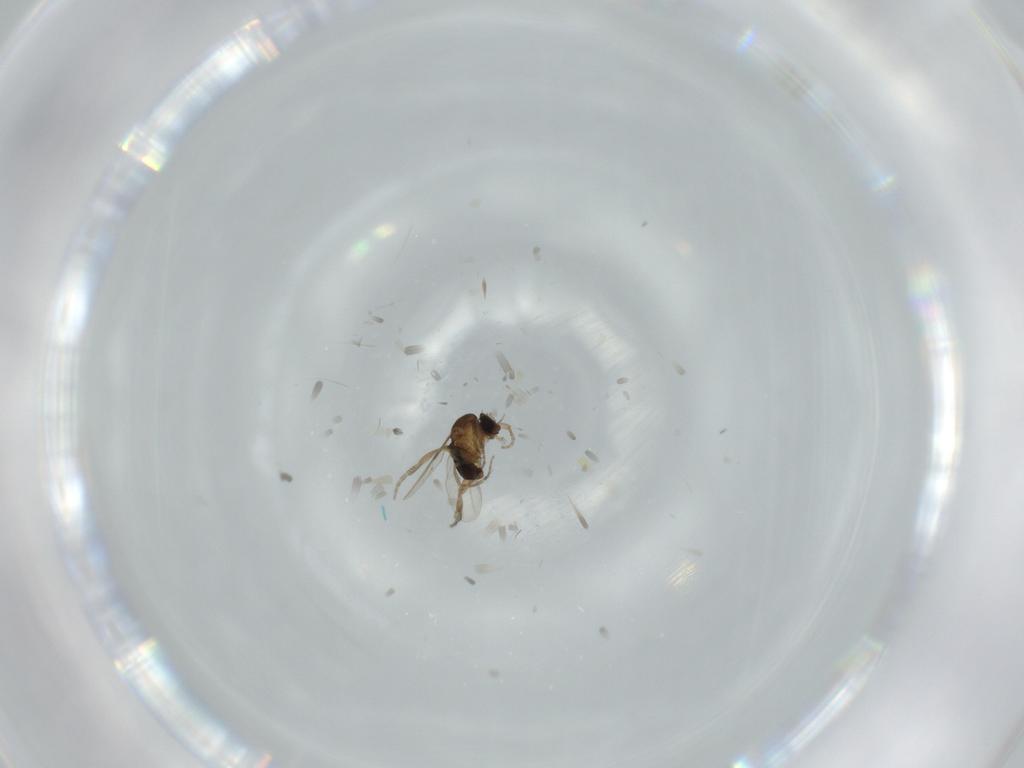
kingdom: Animalia
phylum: Arthropoda
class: Insecta
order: Diptera
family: Phoridae
